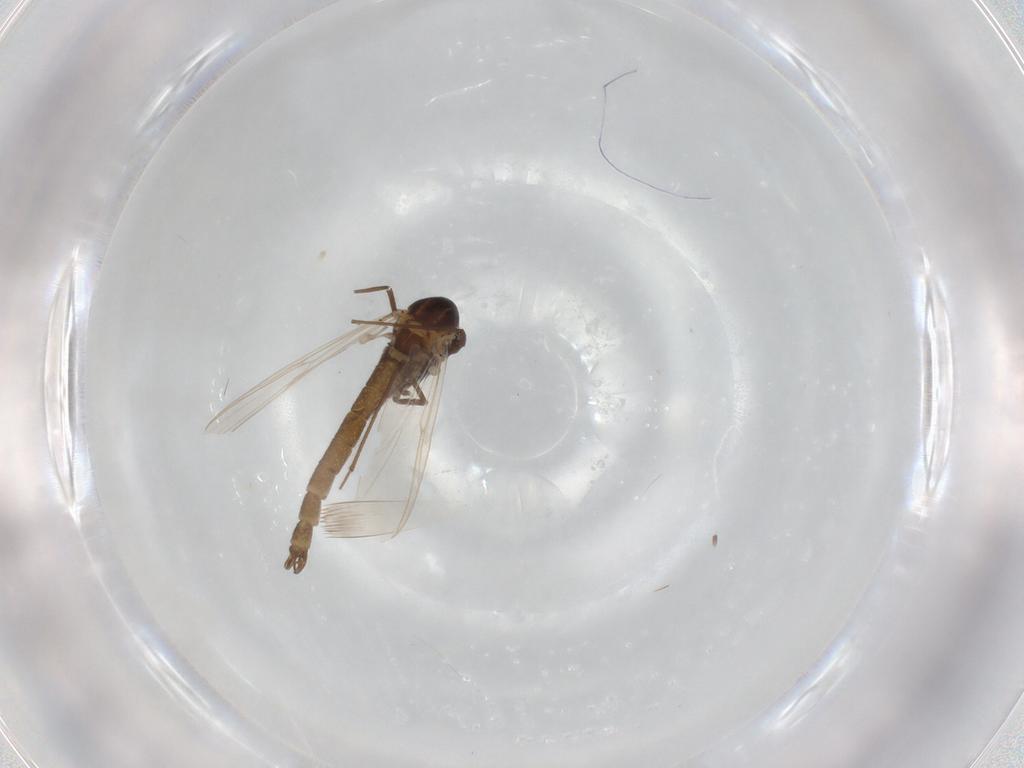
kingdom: Animalia
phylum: Arthropoda
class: Insecta
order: Diptera
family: Chironomidae
